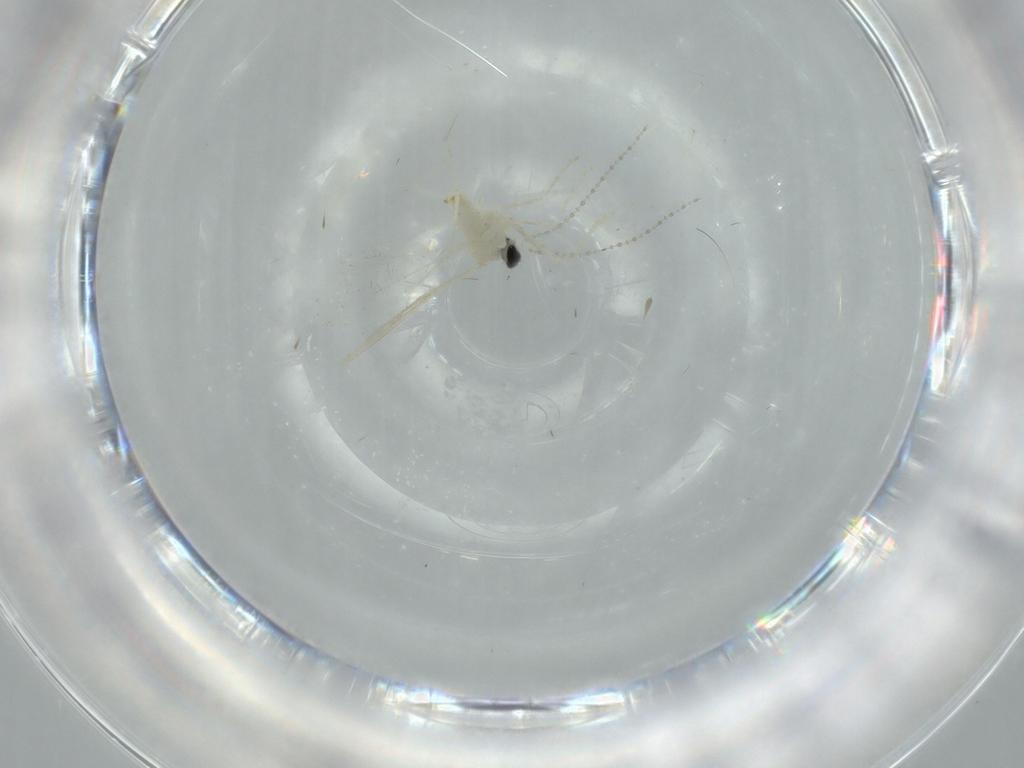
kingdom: Animalia
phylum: Arthropoda
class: Insecta
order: Diptera
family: Cecidomyiidae
